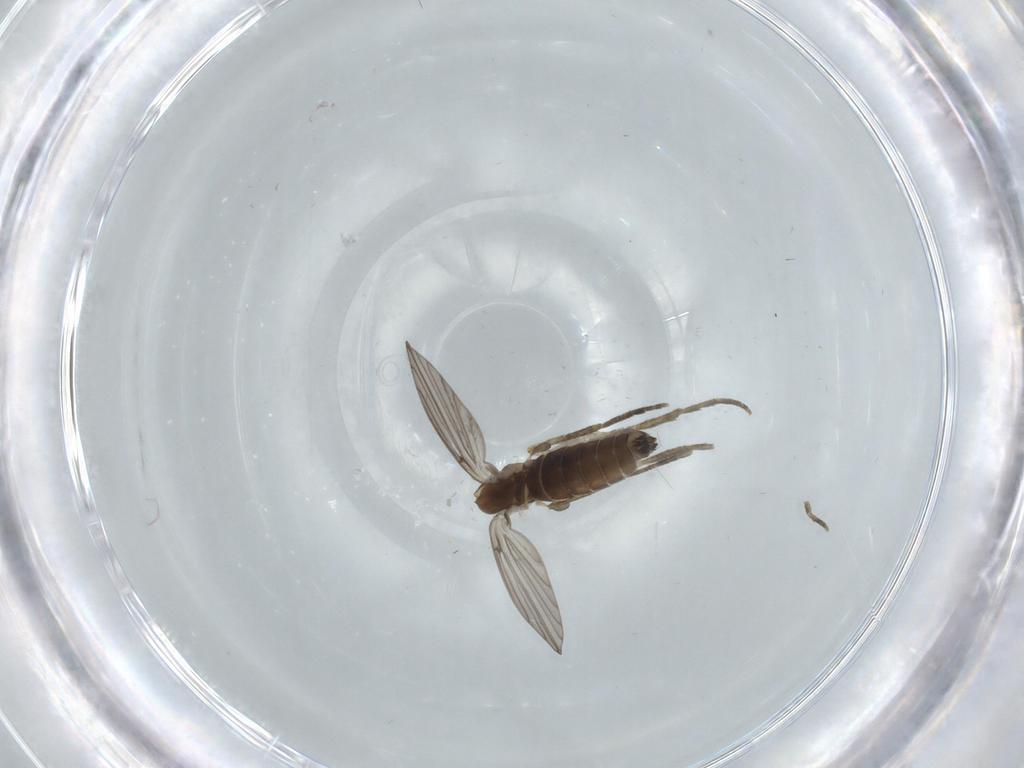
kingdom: Animalia
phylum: Arthropoda
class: Insecta
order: Diptera
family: Psychodidae
